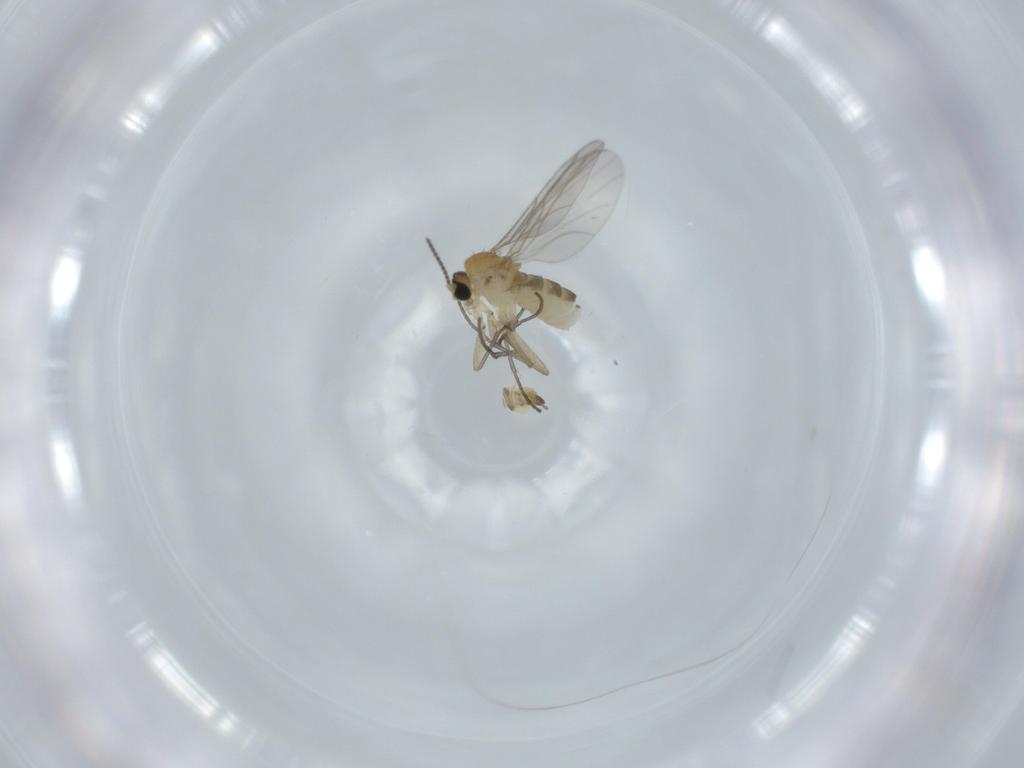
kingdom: Animalia
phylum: Arthropoda
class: Insecta
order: Diptera
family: Sciaridae
